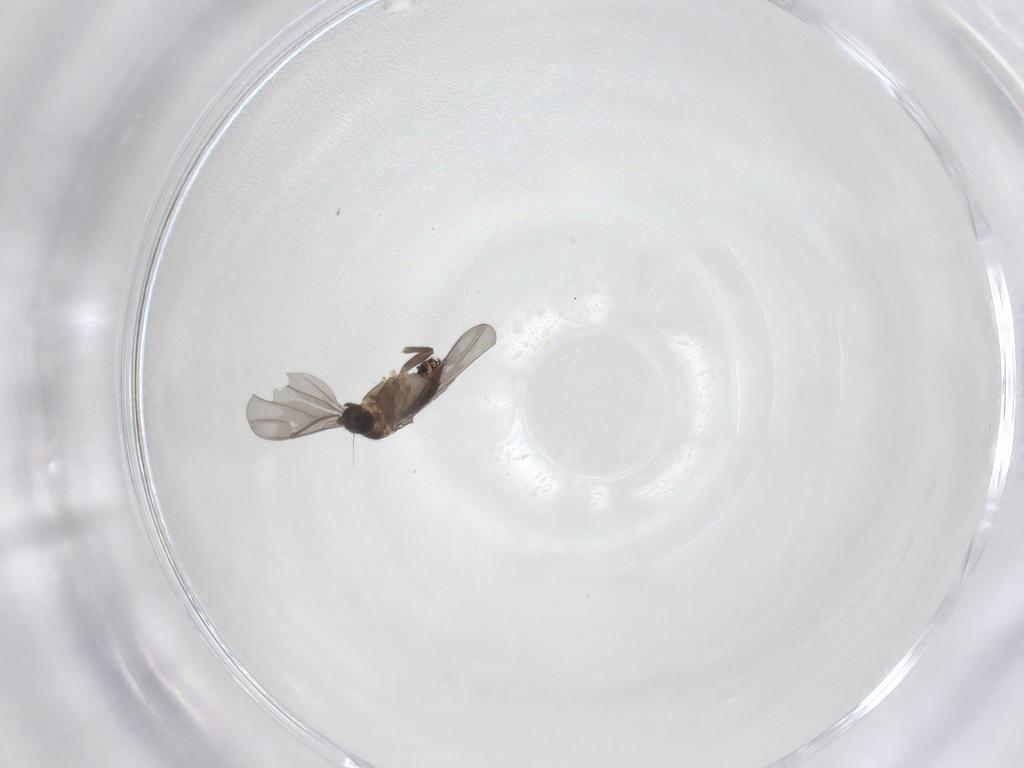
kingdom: Animalia
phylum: Arthropoda
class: Insecta
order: Diptera
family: Phoridae
